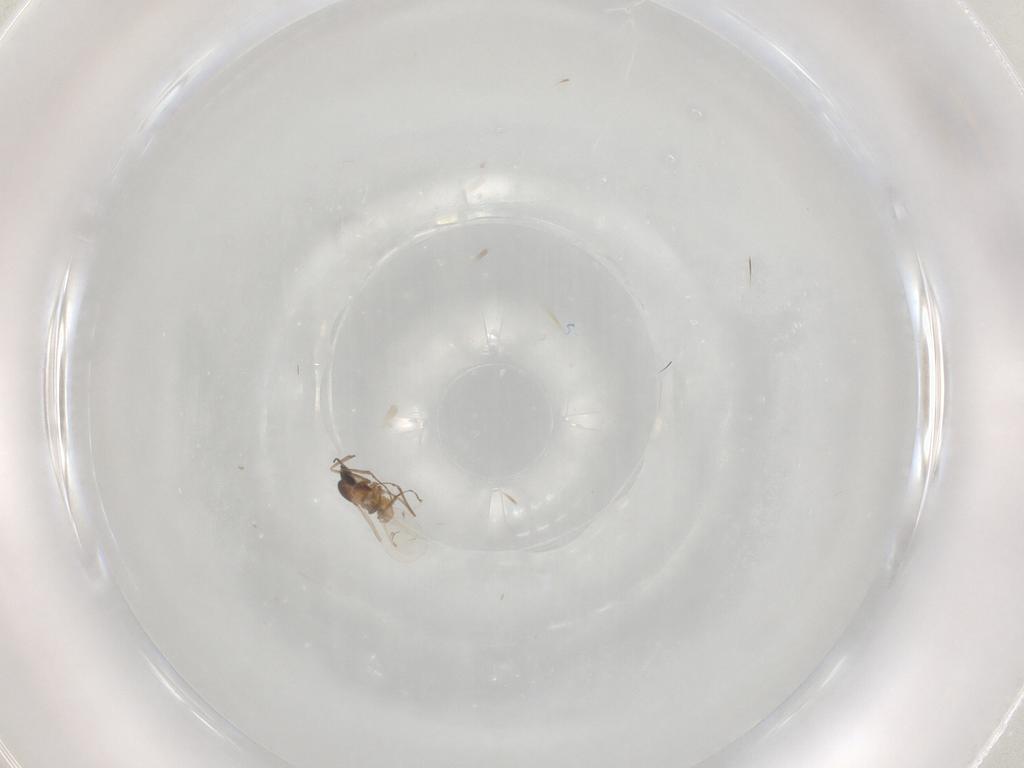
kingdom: Animalia
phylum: Arthropoda
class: Insecta
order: Diptera
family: Cecidomyiidae
